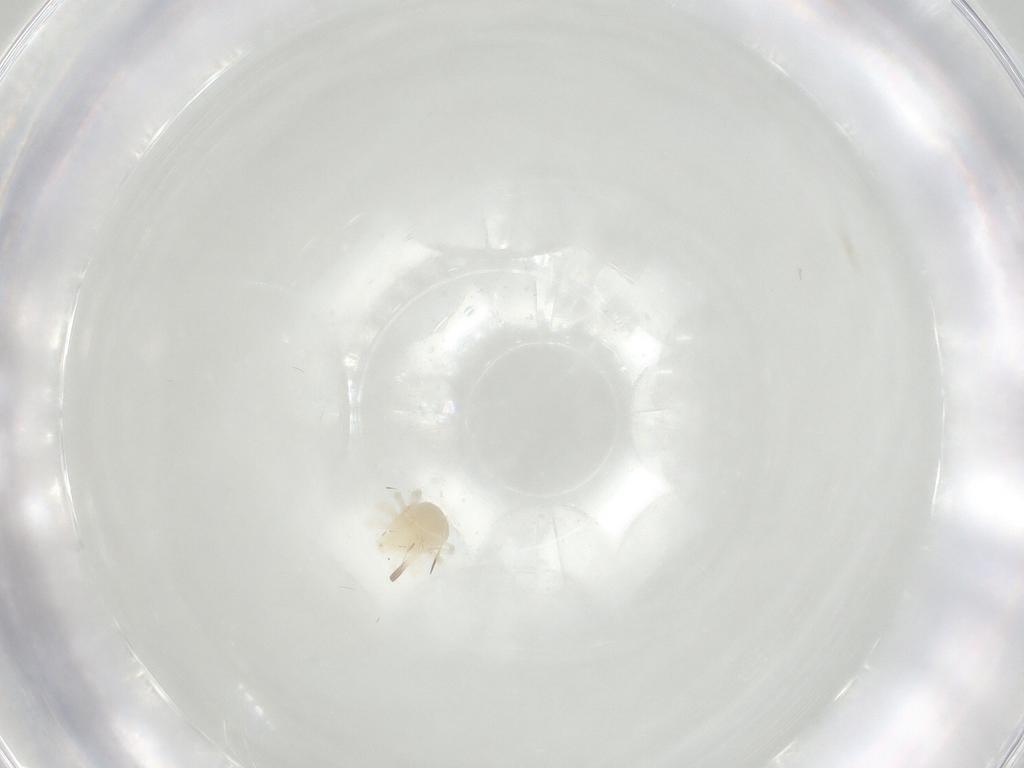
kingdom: Animalia
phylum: Arthropoda
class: Arachnida
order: Trombidiformes
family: Anystidae
